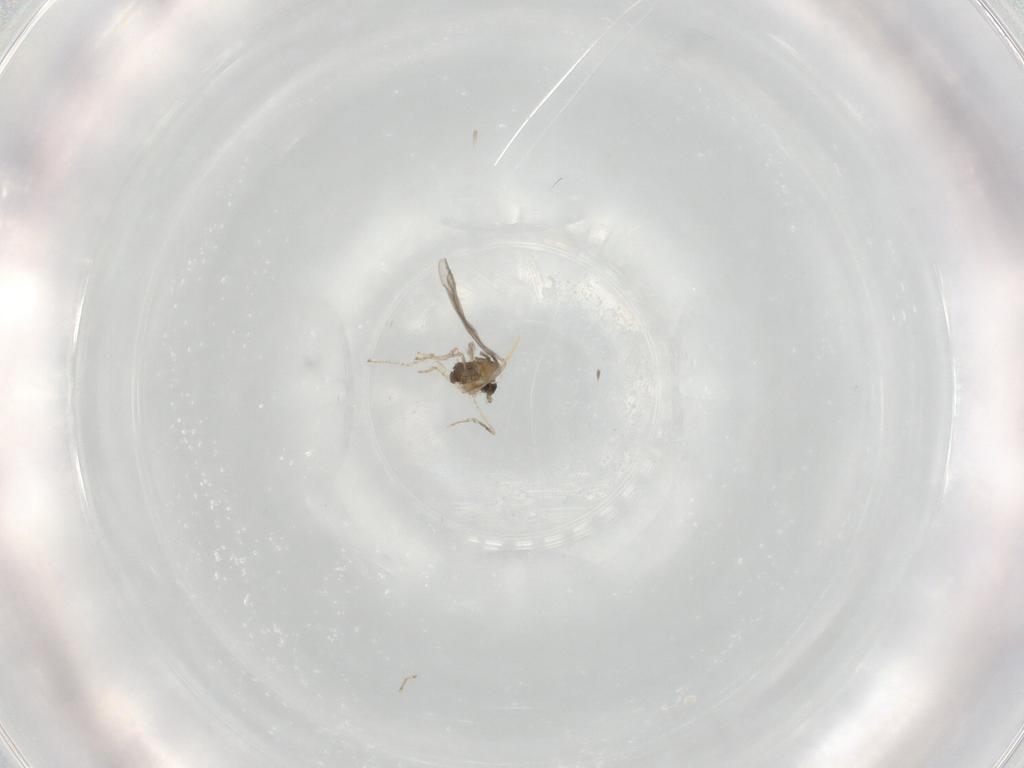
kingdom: Animalia
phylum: Arthropoda
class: Insecta
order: Diptera
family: Cecidomyiidae
